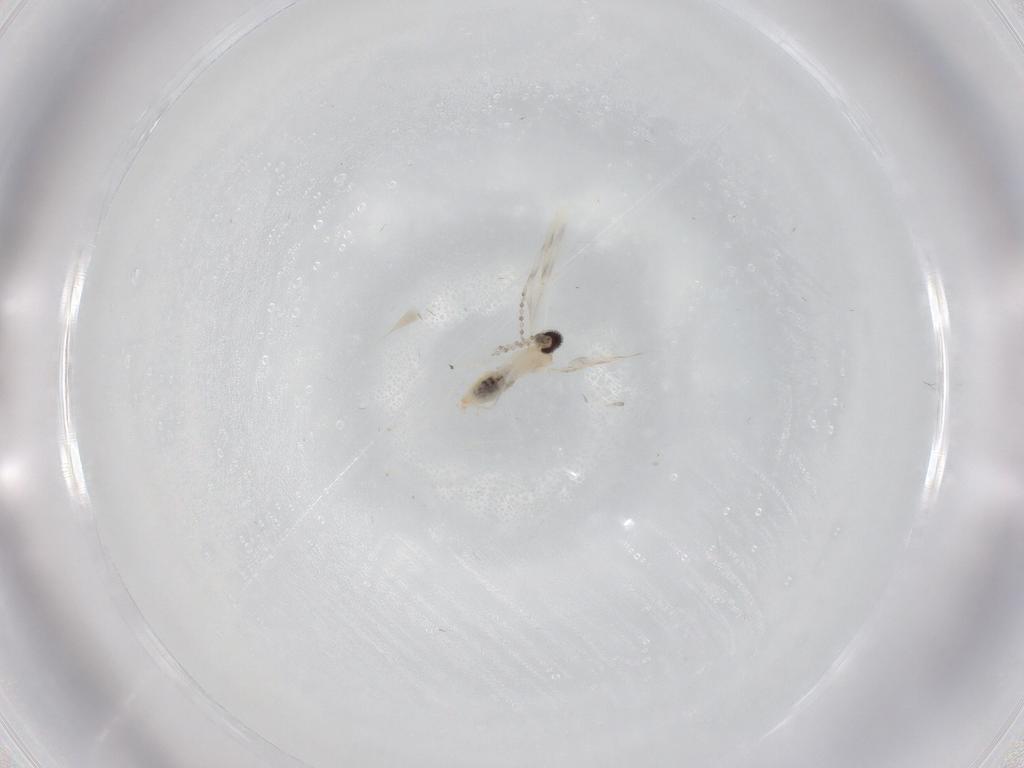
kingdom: Animalia
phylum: Arthropoda
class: Insecta
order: Diptera
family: Cecidomyiidae
